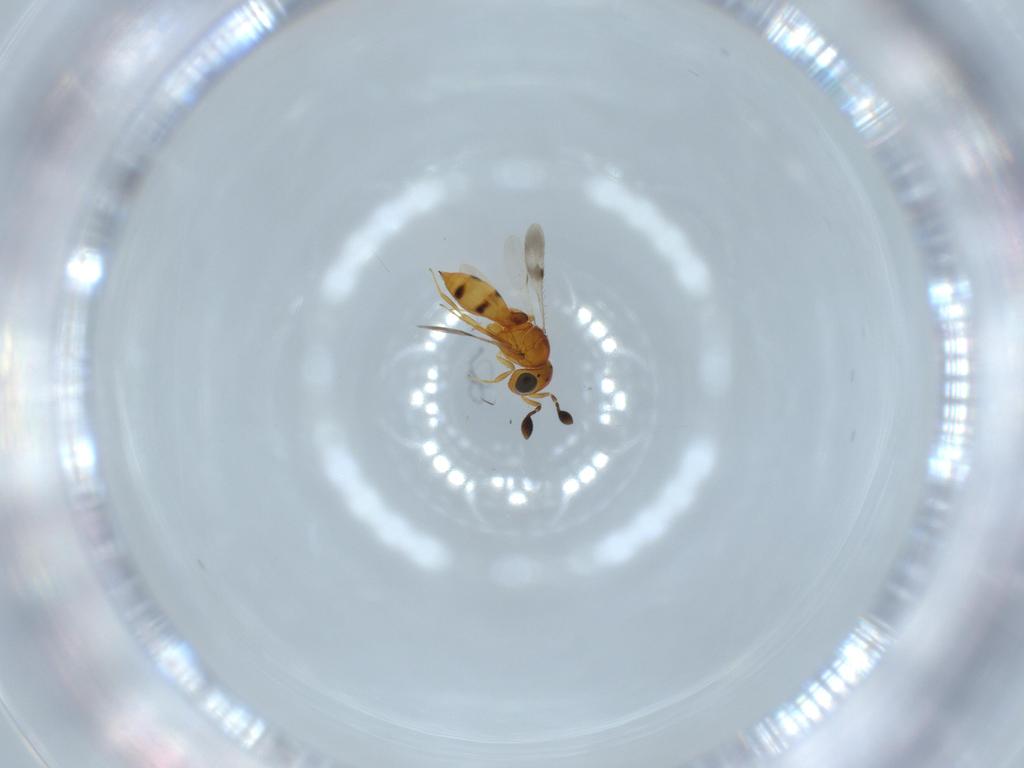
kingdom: Animalia
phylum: Arthropoda
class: Insecta
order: Hymenoptera
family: Scelionidae
